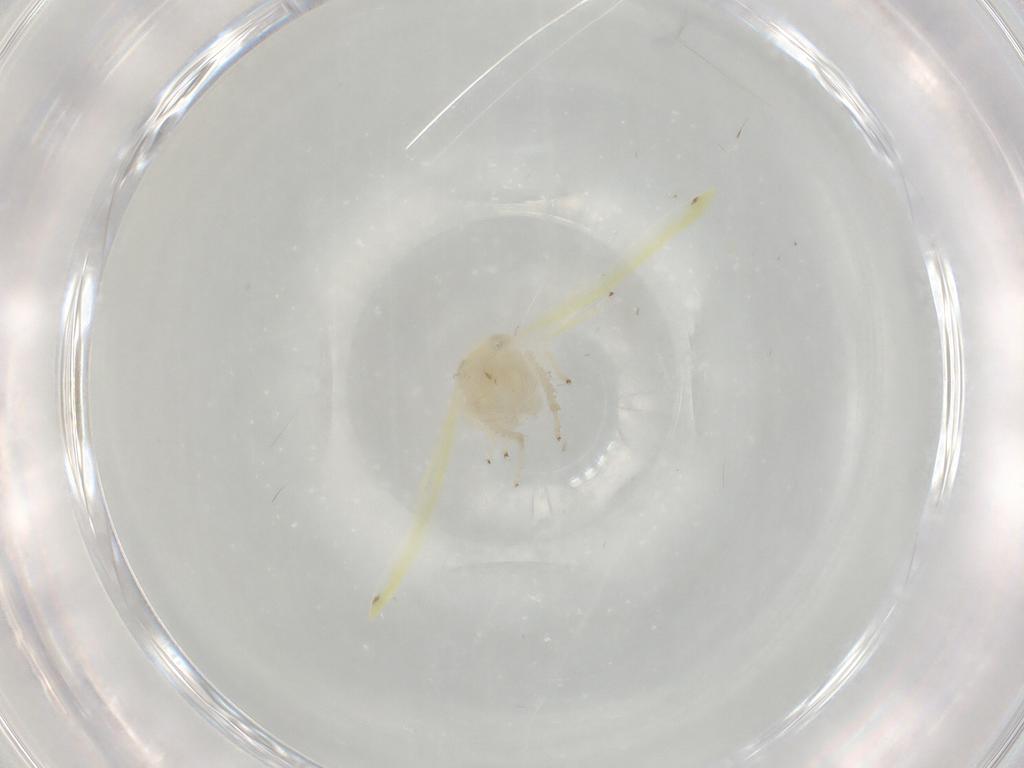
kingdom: Animalia
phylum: Arthropoda
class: Insecta
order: Hemiptera
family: Cicadellidae
